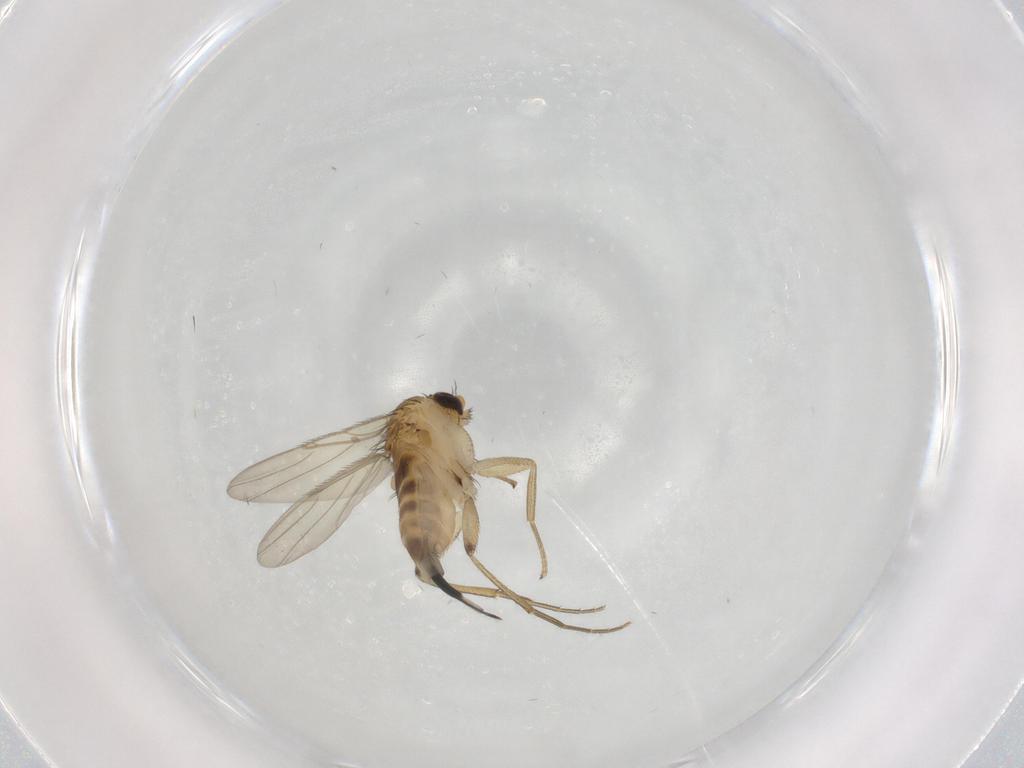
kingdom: Animalia
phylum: Arthropoda
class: Insecta
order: Diptera
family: Phoridae
